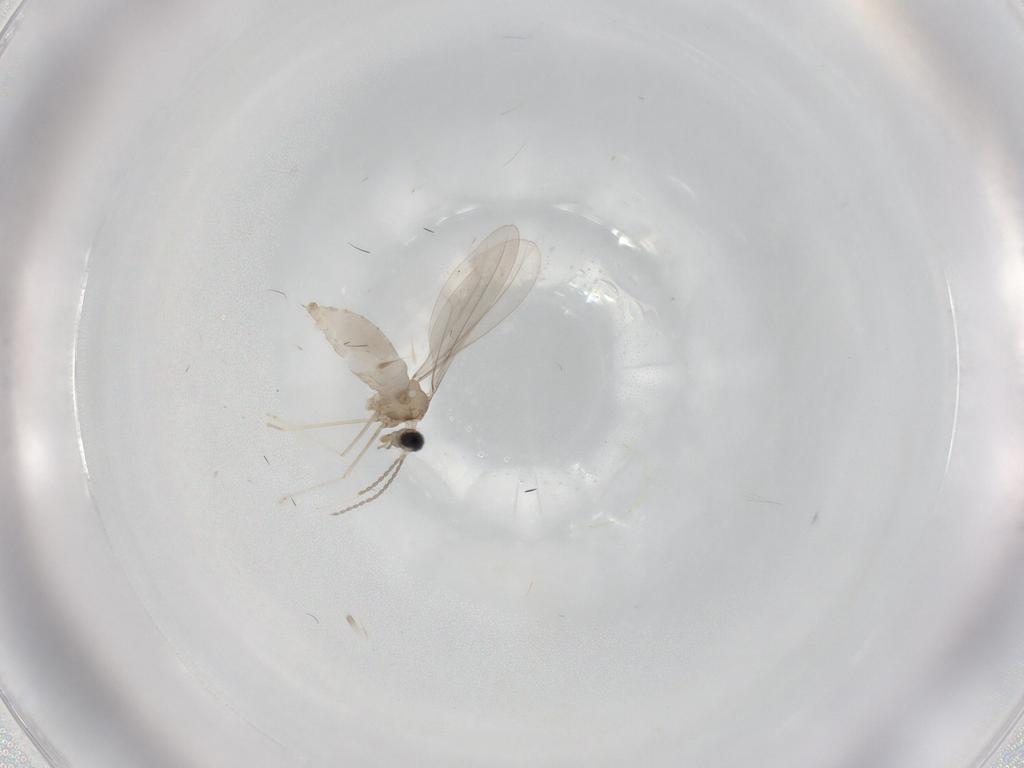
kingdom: Animalia
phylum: Arthropoda
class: Insecta
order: Diptera
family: Cecidomyiidae
